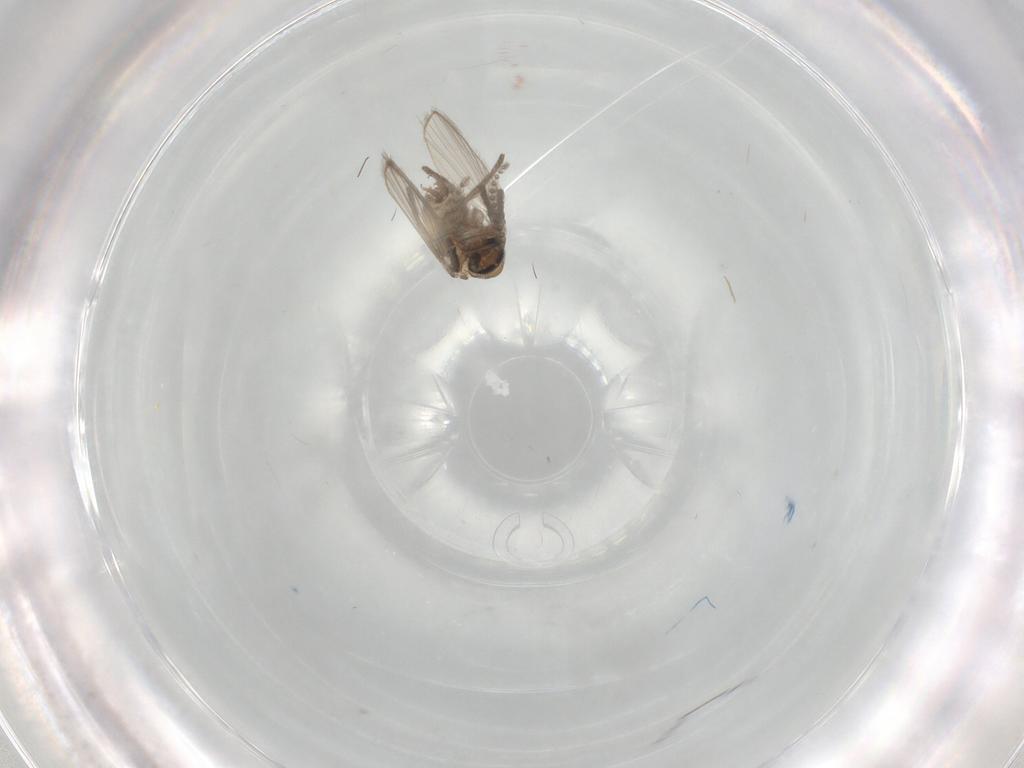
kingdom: Animalia
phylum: Arthropoda
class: Insecta
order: Diptera
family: Psychodidae
